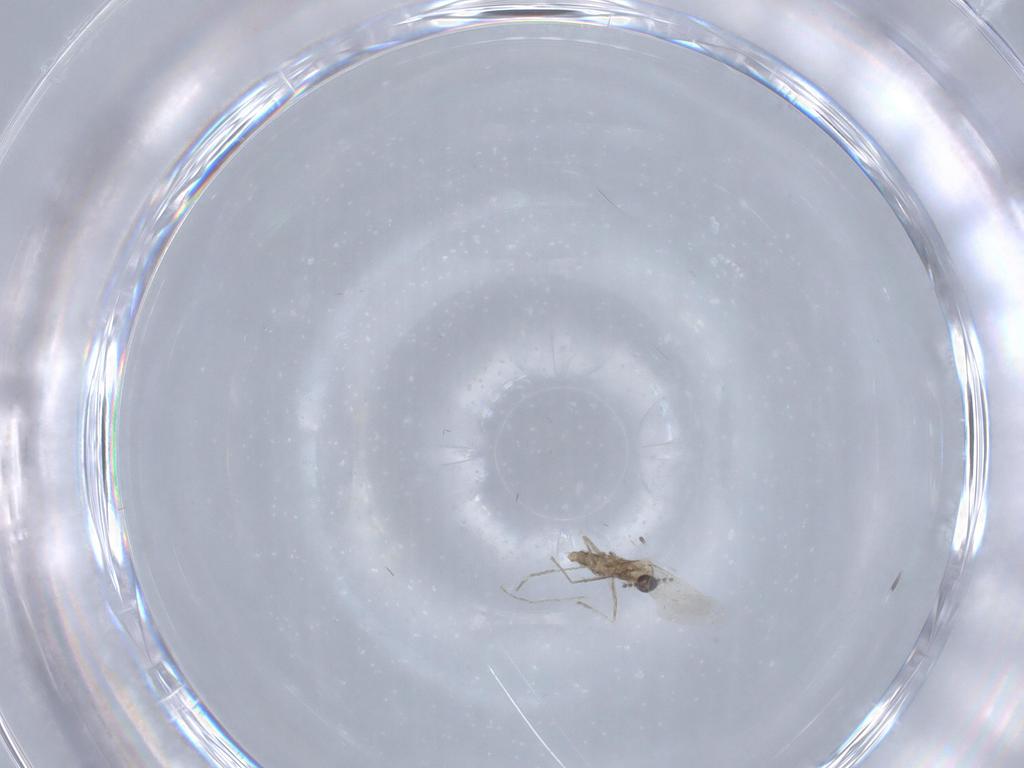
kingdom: Animalia
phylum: Arthropoda
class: Insecta
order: Diptera
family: Cecidomyiidae
